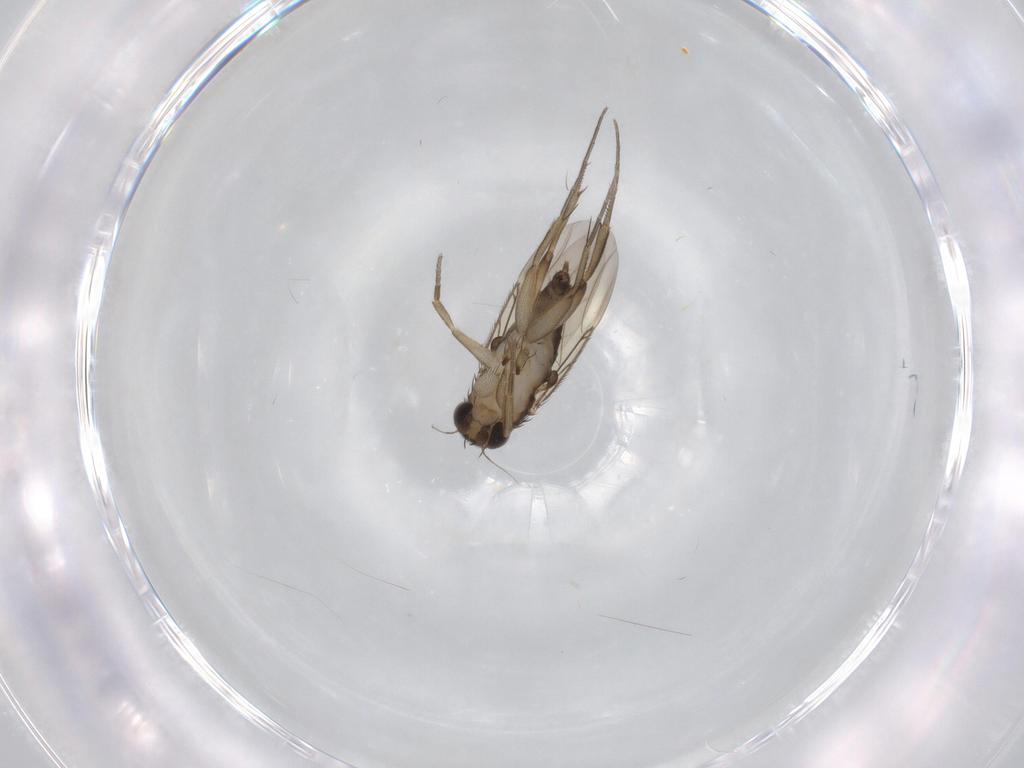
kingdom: Animalia
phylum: Arthropoda
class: Insecta
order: Diptera
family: Phoridae
